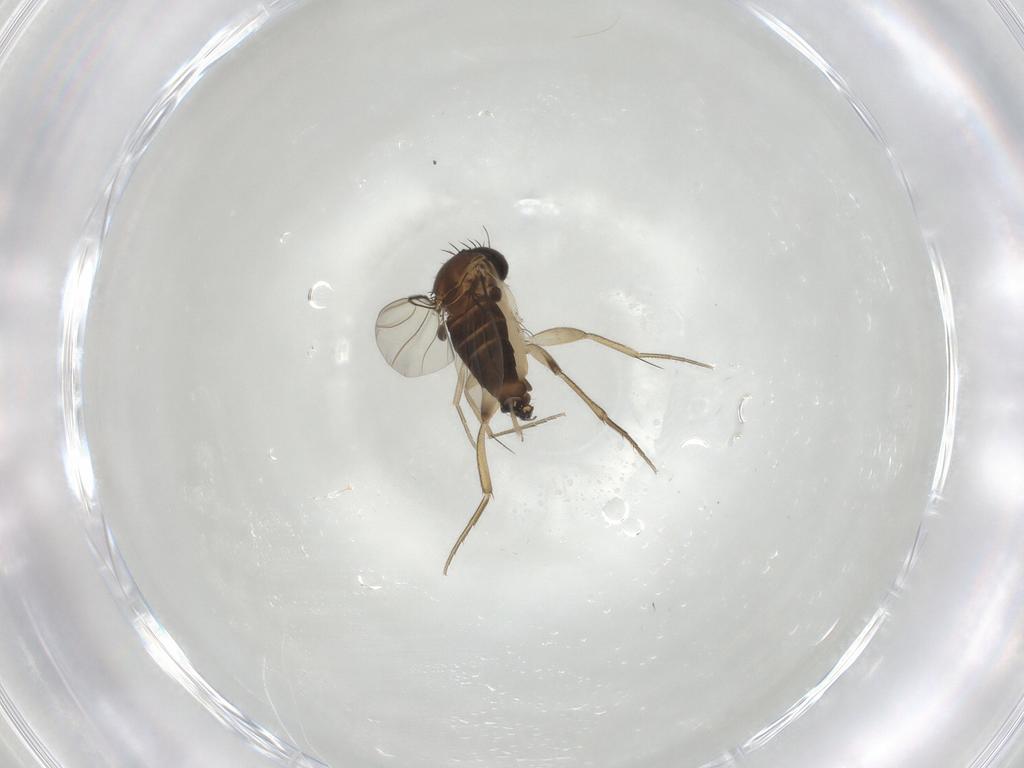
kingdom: Animalia
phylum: Arthropoda
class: Insecta
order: Diptera
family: Phoridae
